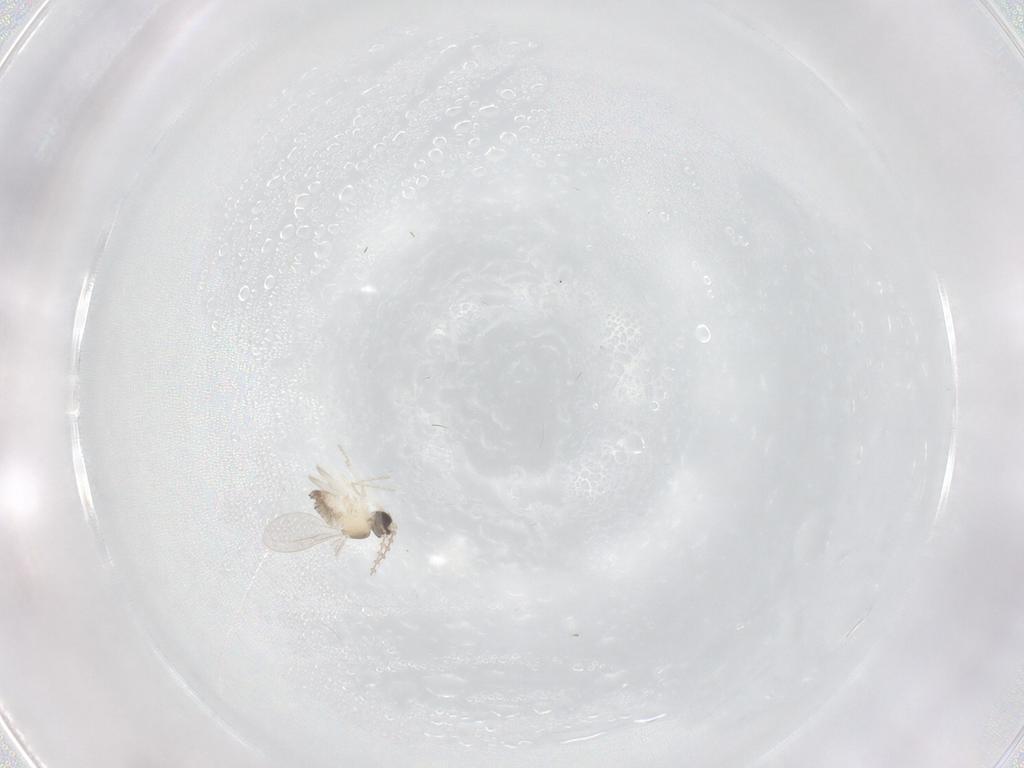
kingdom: Animalia
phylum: Arthropoda
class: Insecta
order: Diptera
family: Cecidomyiidae
